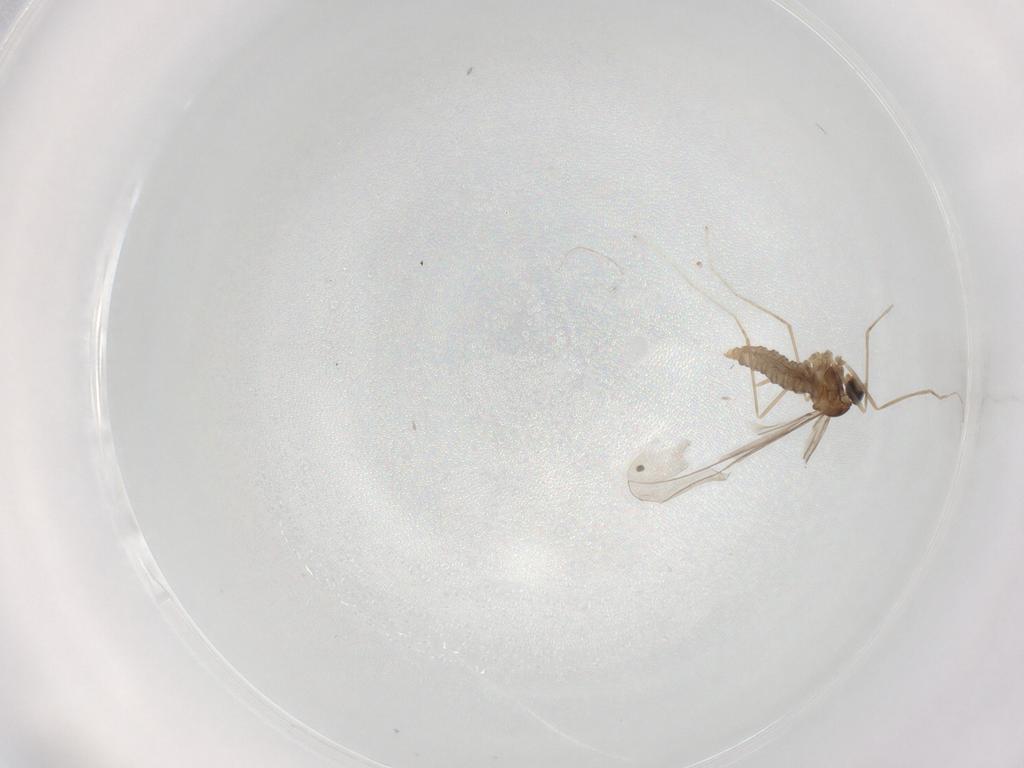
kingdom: Animalia
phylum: Arthropoda
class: Insecta
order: Diptera
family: Cecidomyiidae
